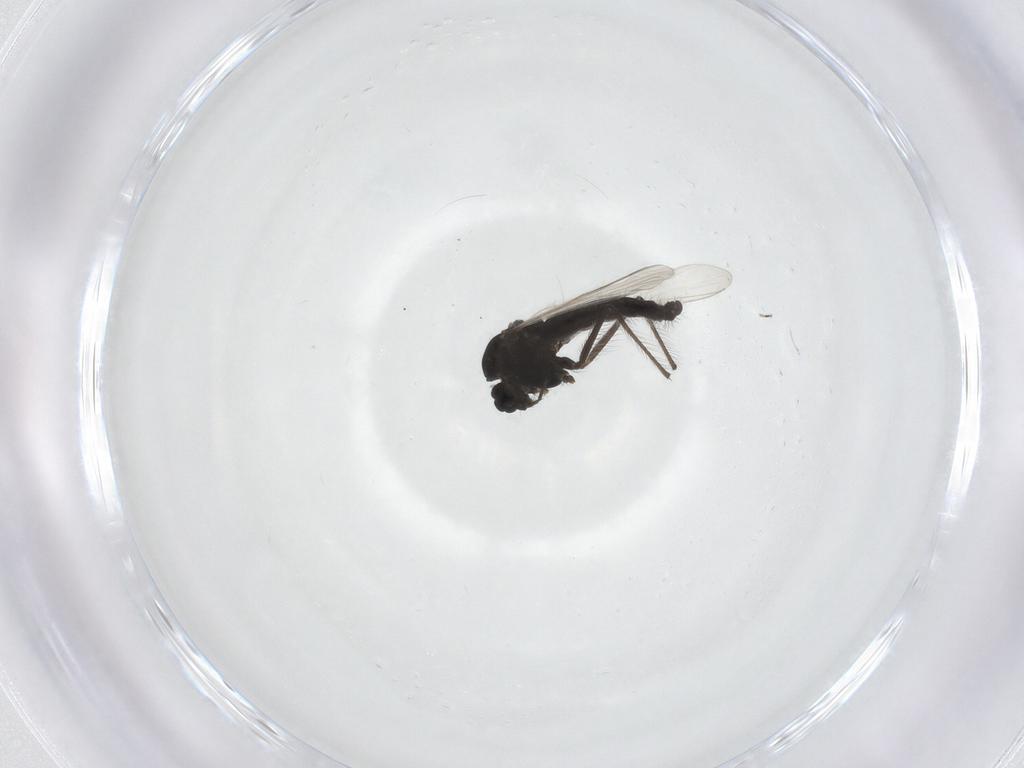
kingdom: Animalia
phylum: Arthropoda
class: Insecta
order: Diptera
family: Chironomidae
